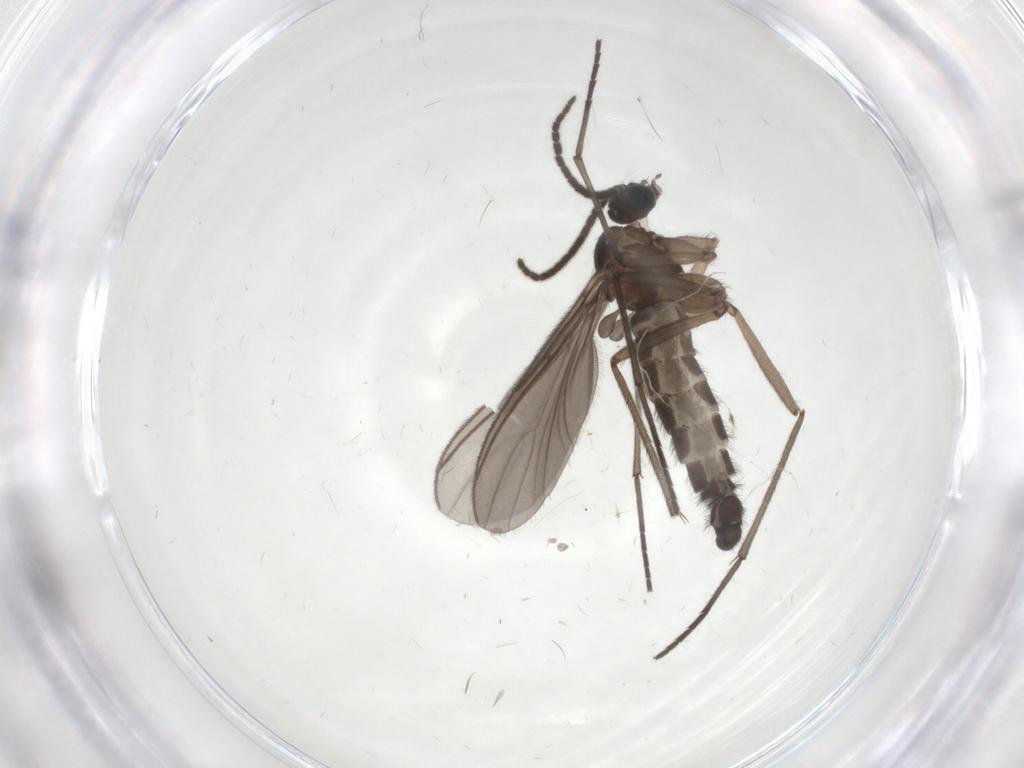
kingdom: Animalia
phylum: Arthropoda
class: Insecta
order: Diptera
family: Sciaridae
